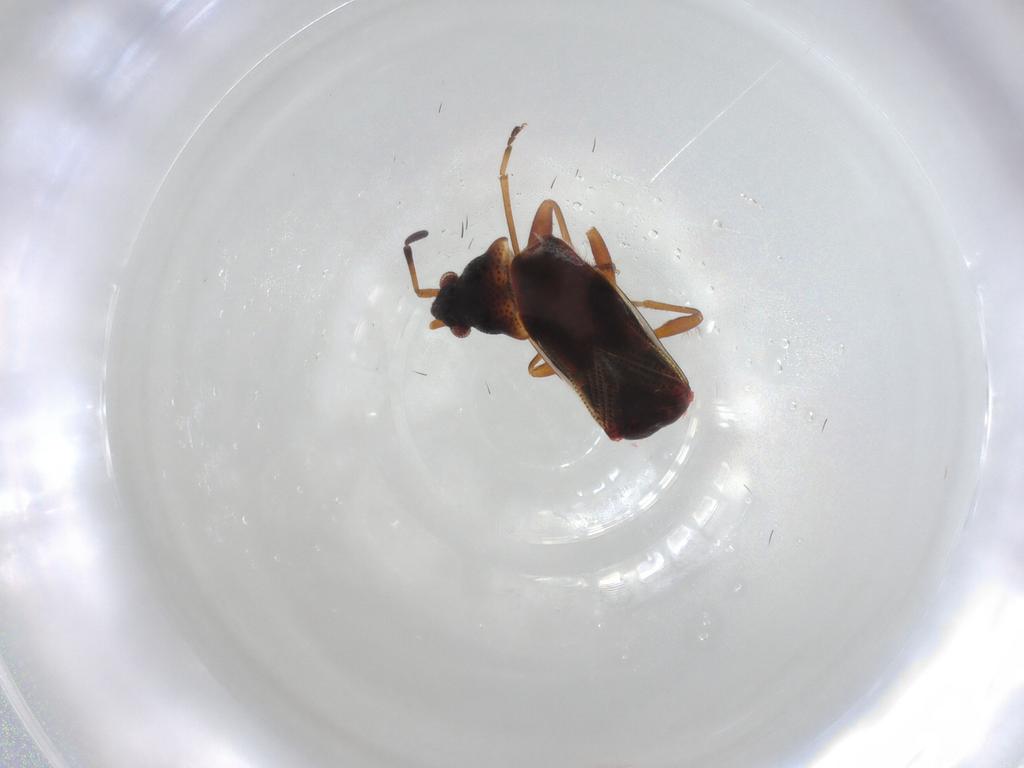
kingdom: Animalia
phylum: Arthropoda
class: Insecta
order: Hemiptera
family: Rhyparochromidae
